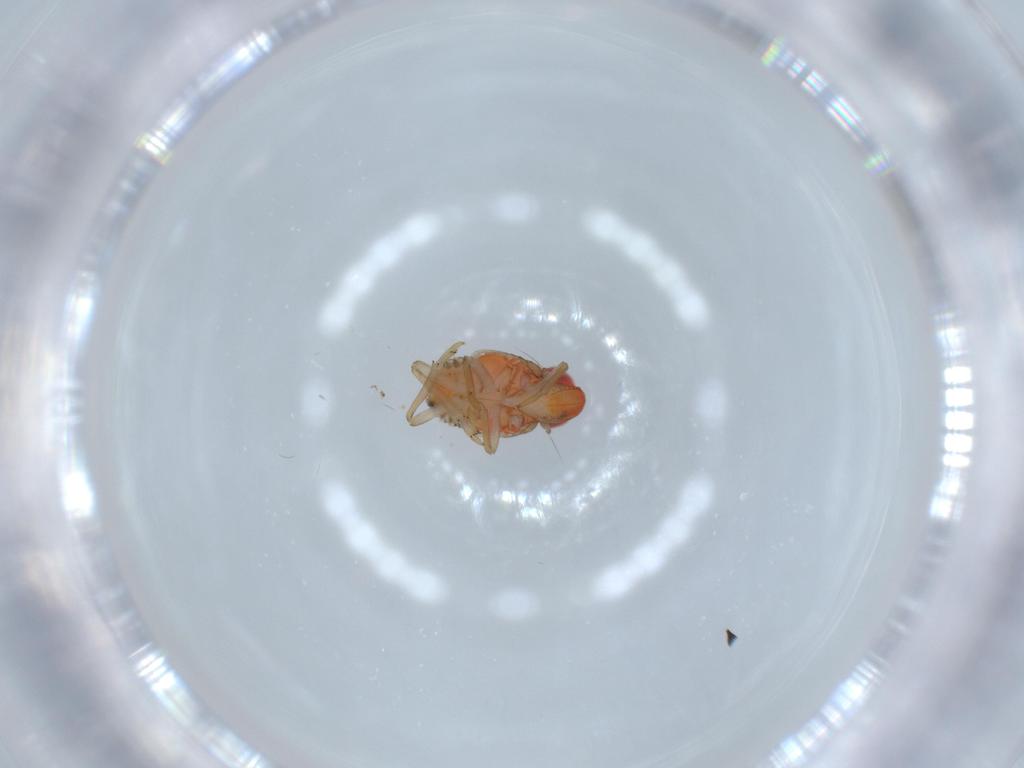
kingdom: Animalia
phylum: Arthropoda
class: Insecta
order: Hemiptera
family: Fulgoroidea_incertae_sedis
